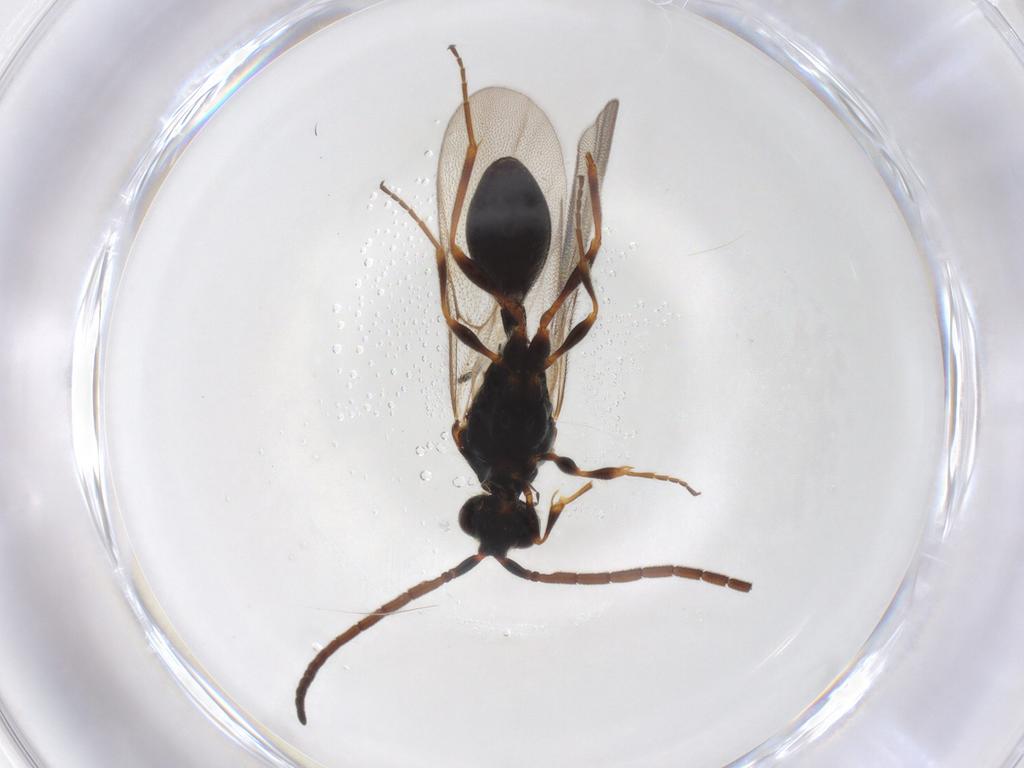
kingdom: Animalia
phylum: Arthropoda
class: Insecta
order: Hymenoptera
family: Braconidae
